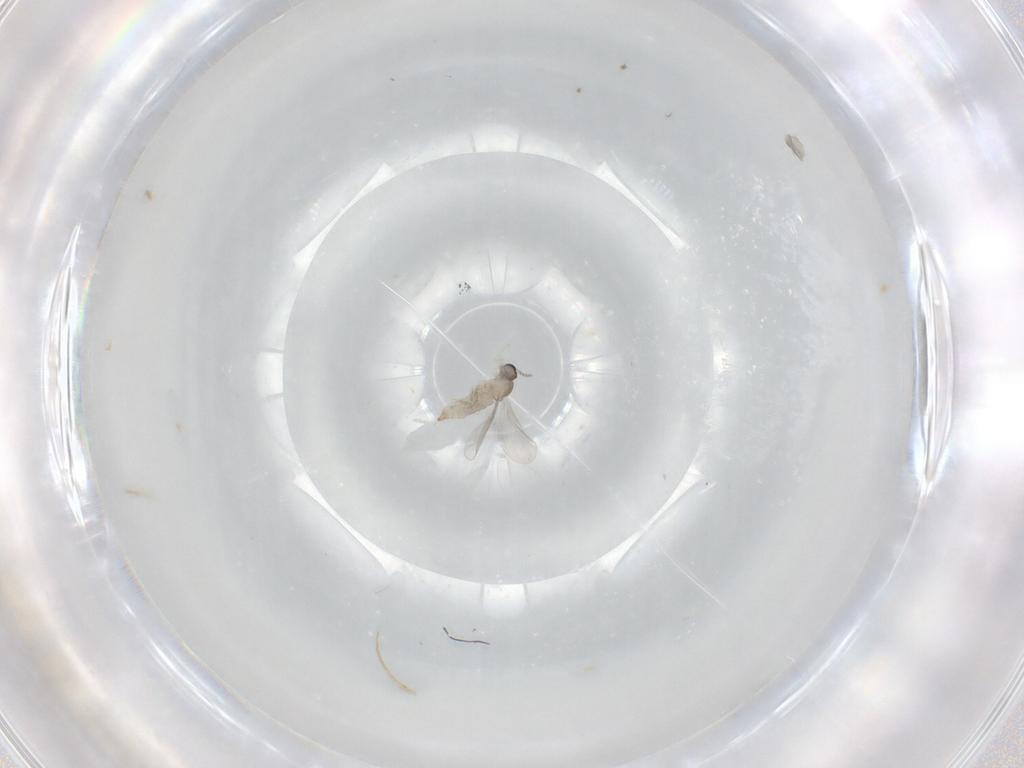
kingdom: Animalia
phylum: Arthropoda
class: Insecta
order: Diptera
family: Cecidomyiidae
